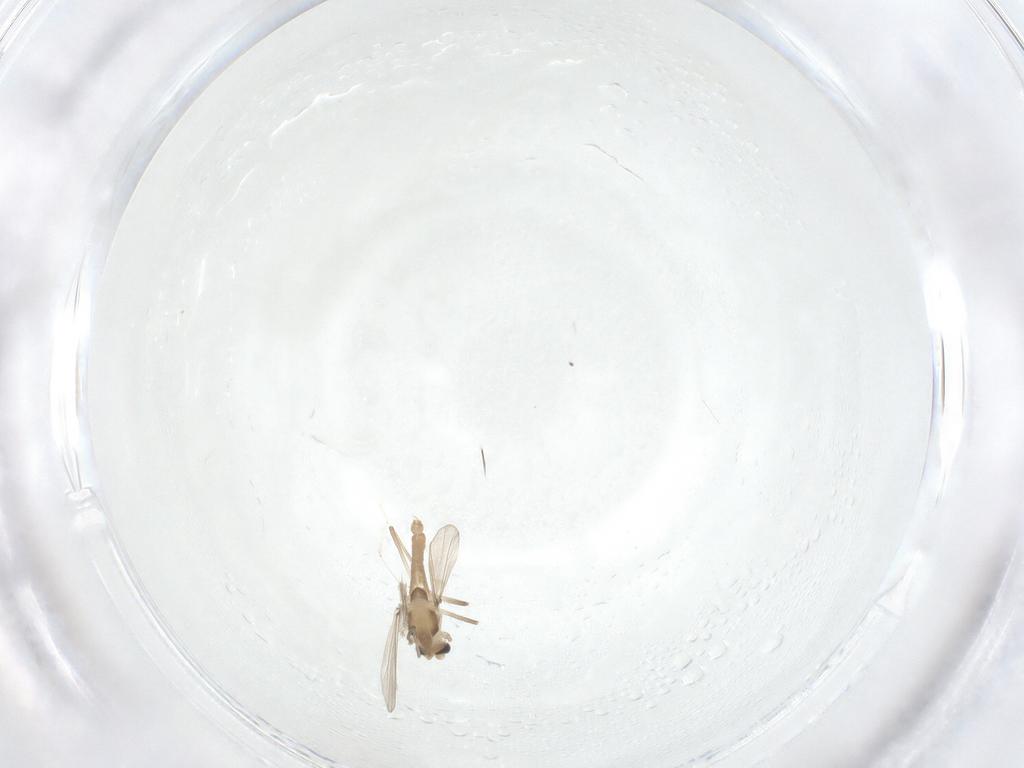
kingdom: Animalia
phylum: Arthropoda
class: Insecta
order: Diptera
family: Chironomidae
